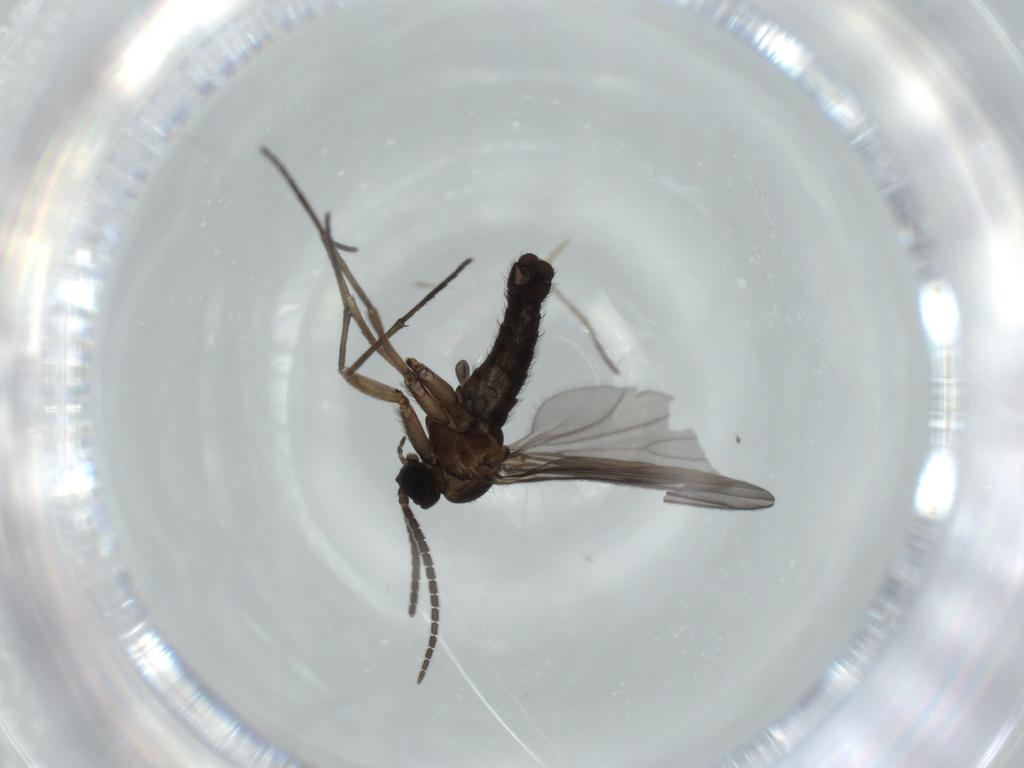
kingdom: Animalia
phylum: Arthropoda
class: Insecta
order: Diptera
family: Sciaridae
